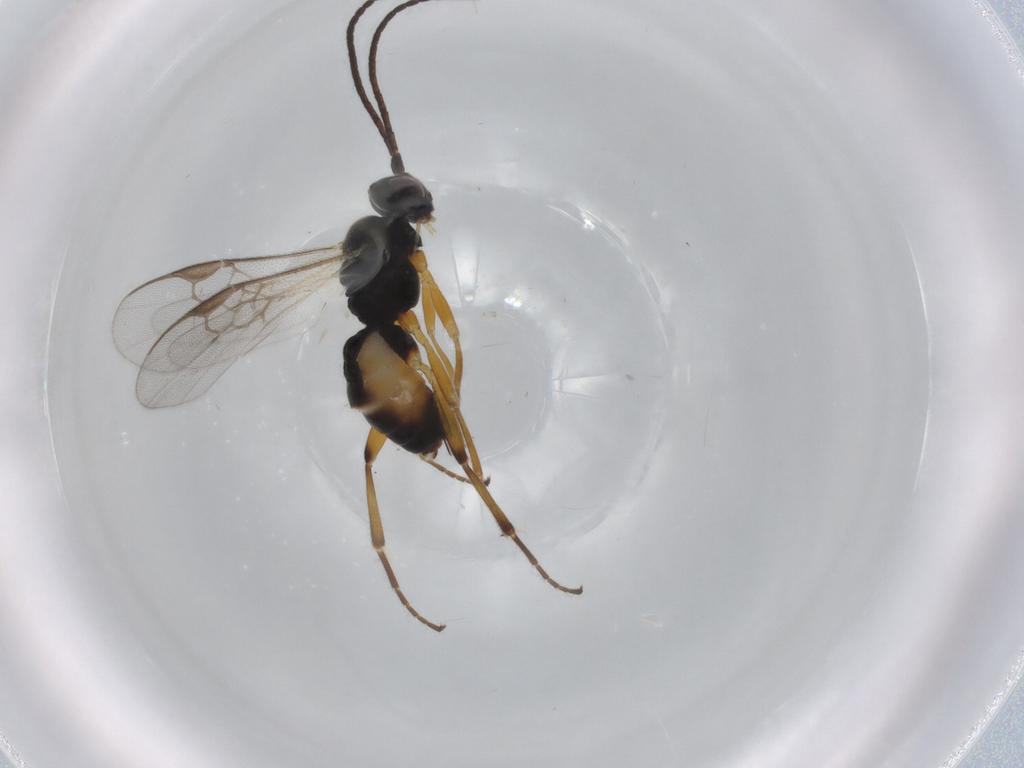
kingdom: Animalia
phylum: Arthropoda
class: Insecta
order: Hymenoptera
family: Braconidae
